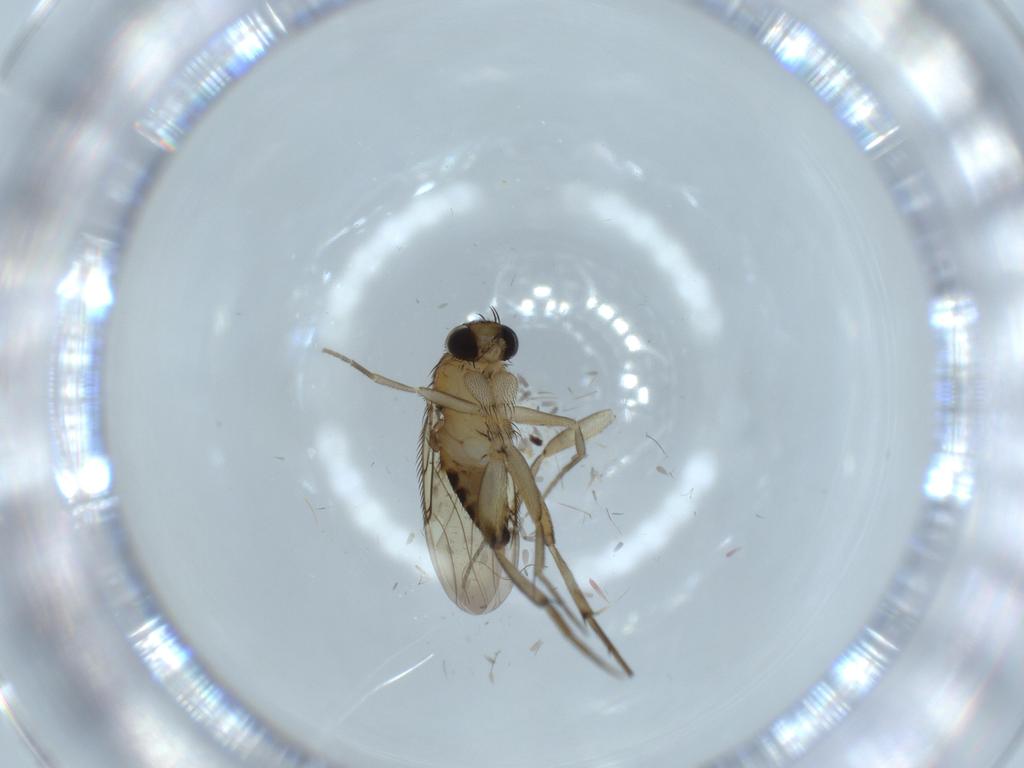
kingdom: Animalia
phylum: Arthropoda
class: Insecta
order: Diptera
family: Phoridae
